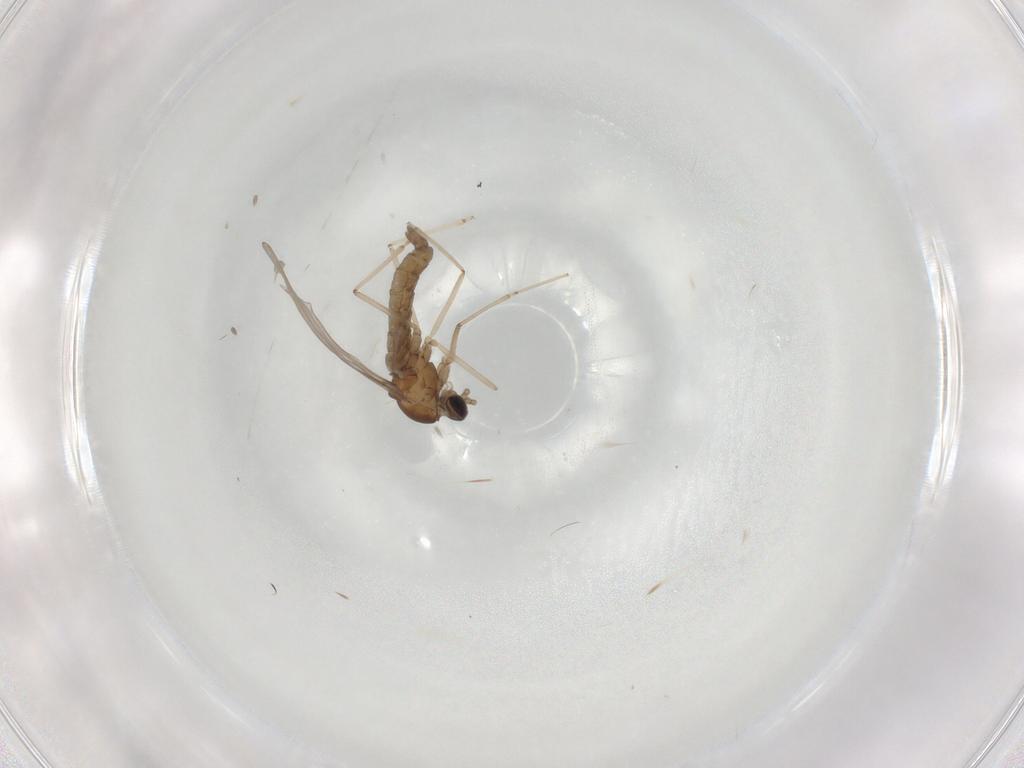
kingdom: Animalia
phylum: Arthropoda
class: Insecta
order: Diptera
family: Cecidomyiidae
